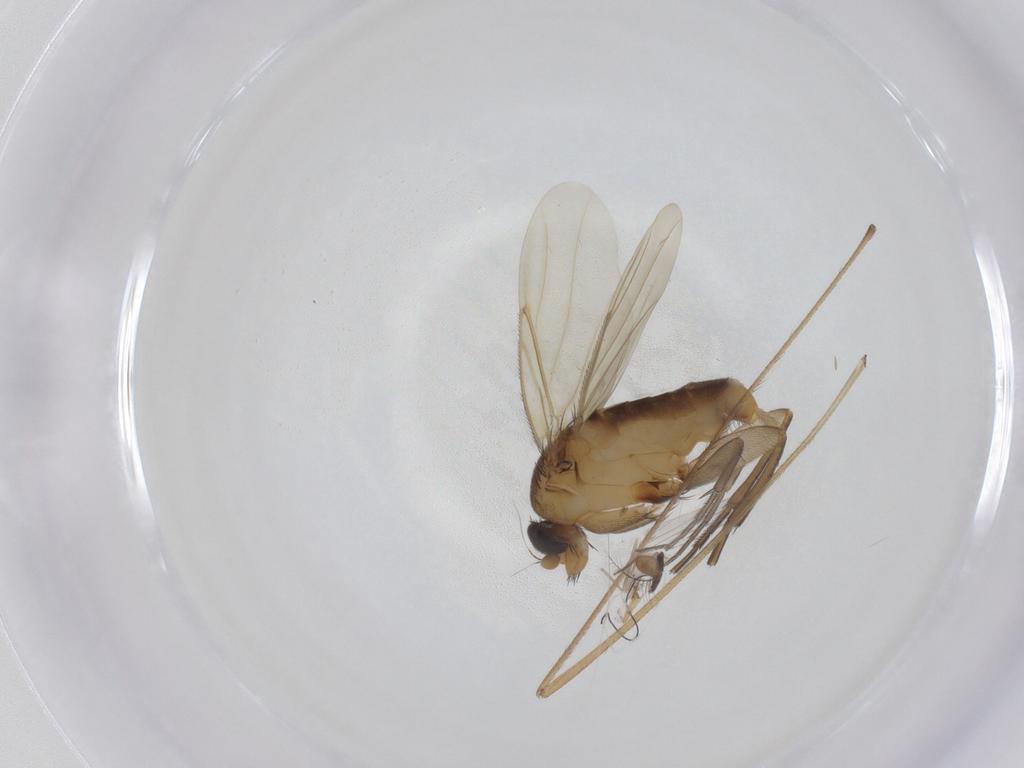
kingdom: Animalia
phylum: Arthropoda
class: Insecta
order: Diptera
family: Phoridae
